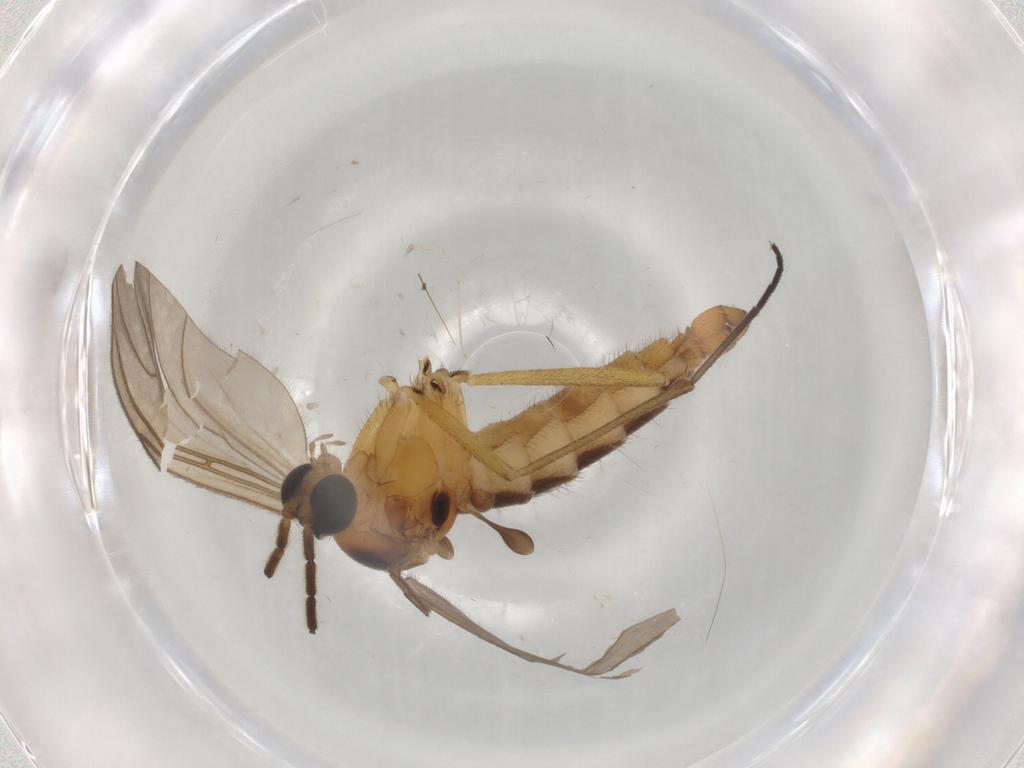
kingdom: Animalia
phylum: Arthropoda
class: Insecta
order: Diptera
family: Sciaridae
